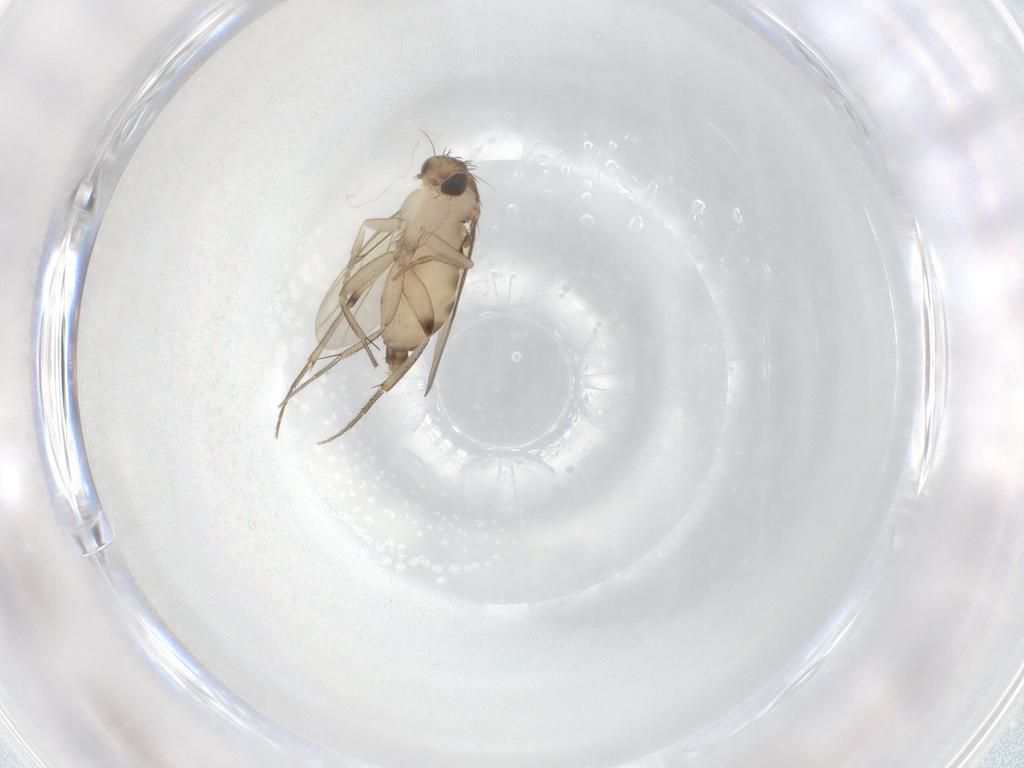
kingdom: Animalia
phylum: Arthropoda
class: Insecta
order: Diptera
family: Phoridae
